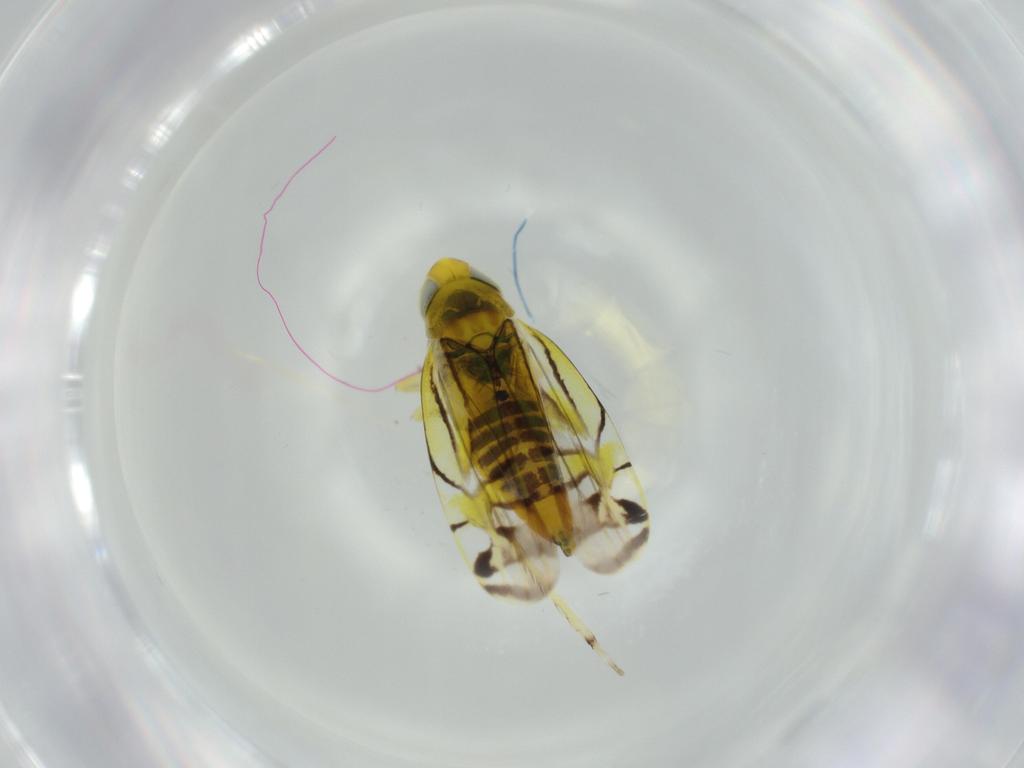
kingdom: Animalia
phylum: Arthropoda
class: Insecta
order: Hemiptera
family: Cicadellidae
